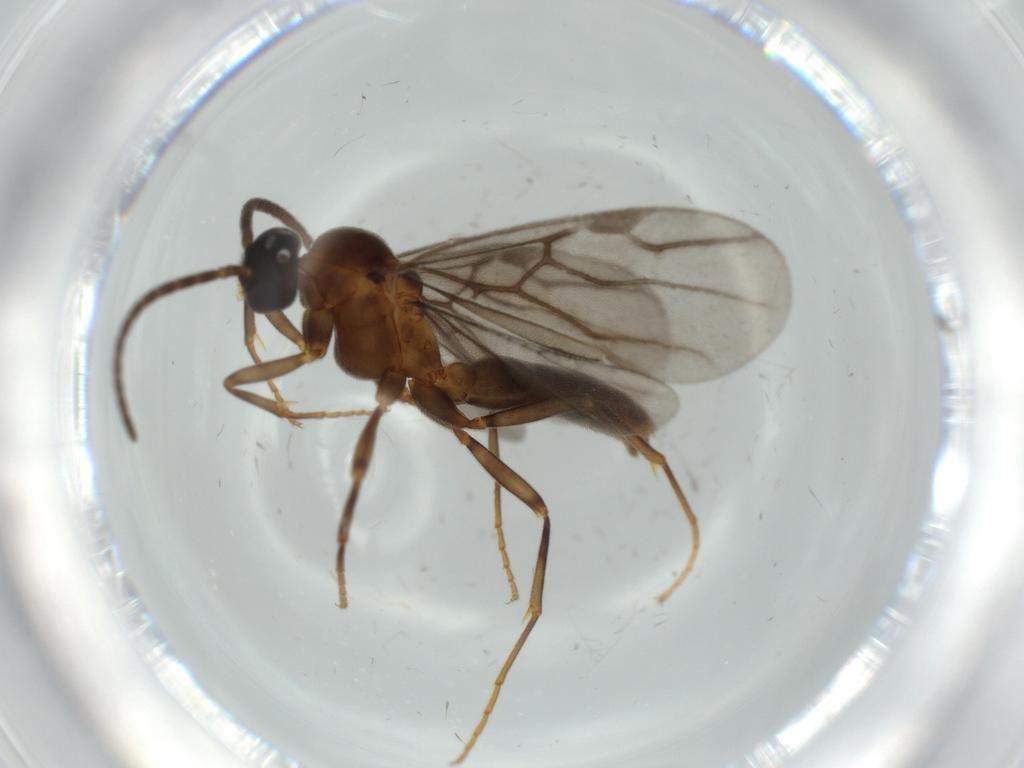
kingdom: Animalia
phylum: Arthropoda
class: Insecta
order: Hymenoptera
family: Formicidae
